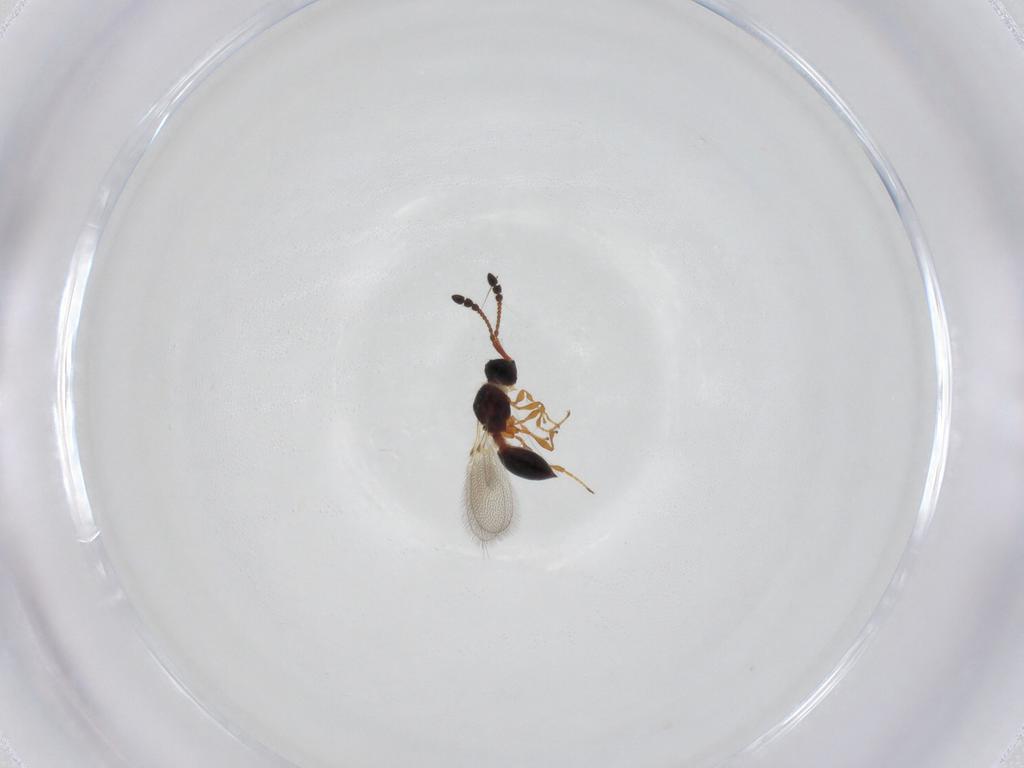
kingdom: Animalia
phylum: Arthropoda
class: Insecta
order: Hymenoptera
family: Diapriidae
